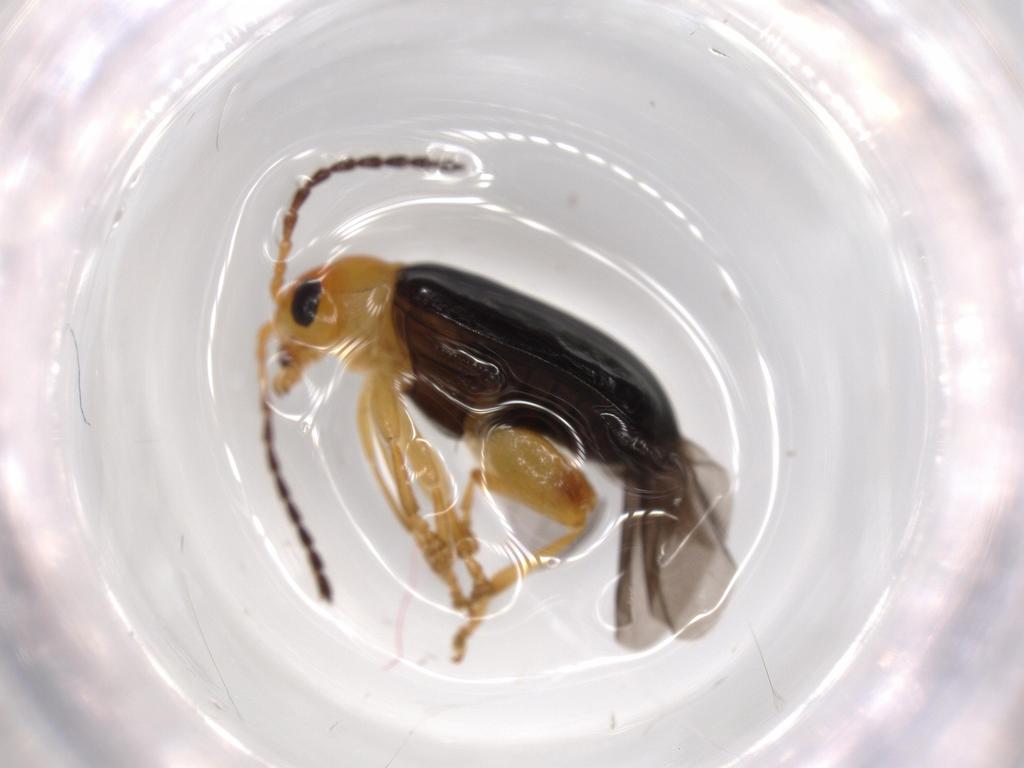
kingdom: Animalia
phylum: Arthropoda
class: Insecta
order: Coleoptera
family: Chrysomelidae
